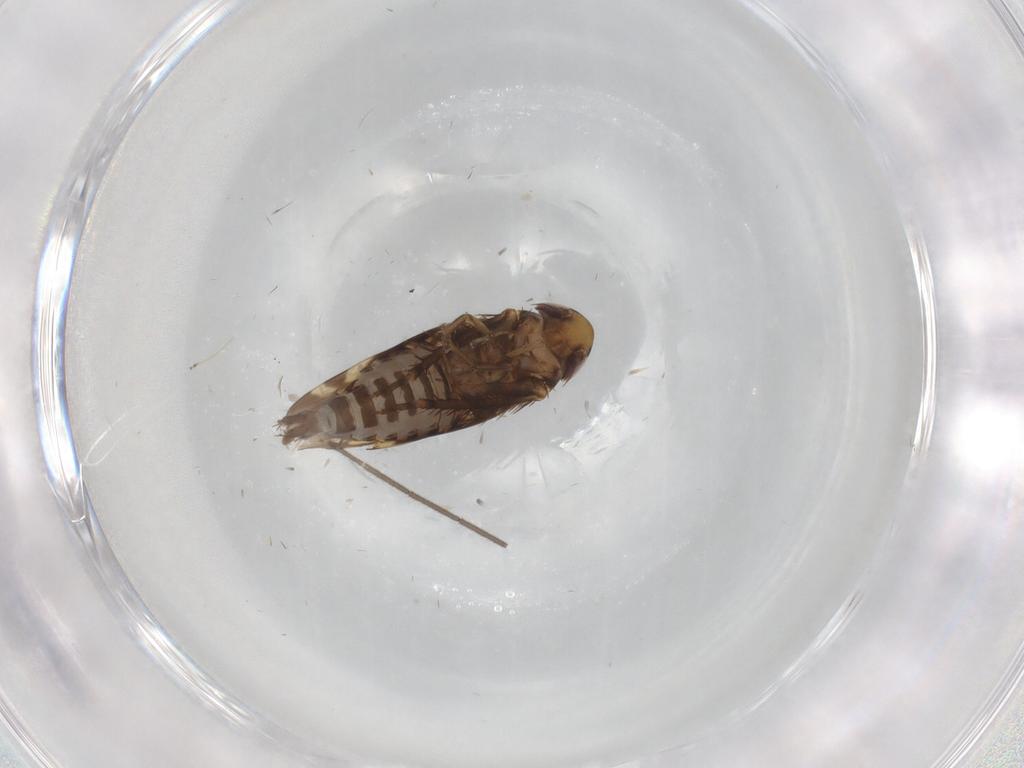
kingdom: Animalia
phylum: Arthropoda
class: Insecta
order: Hemiptera
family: Cicadellidae
